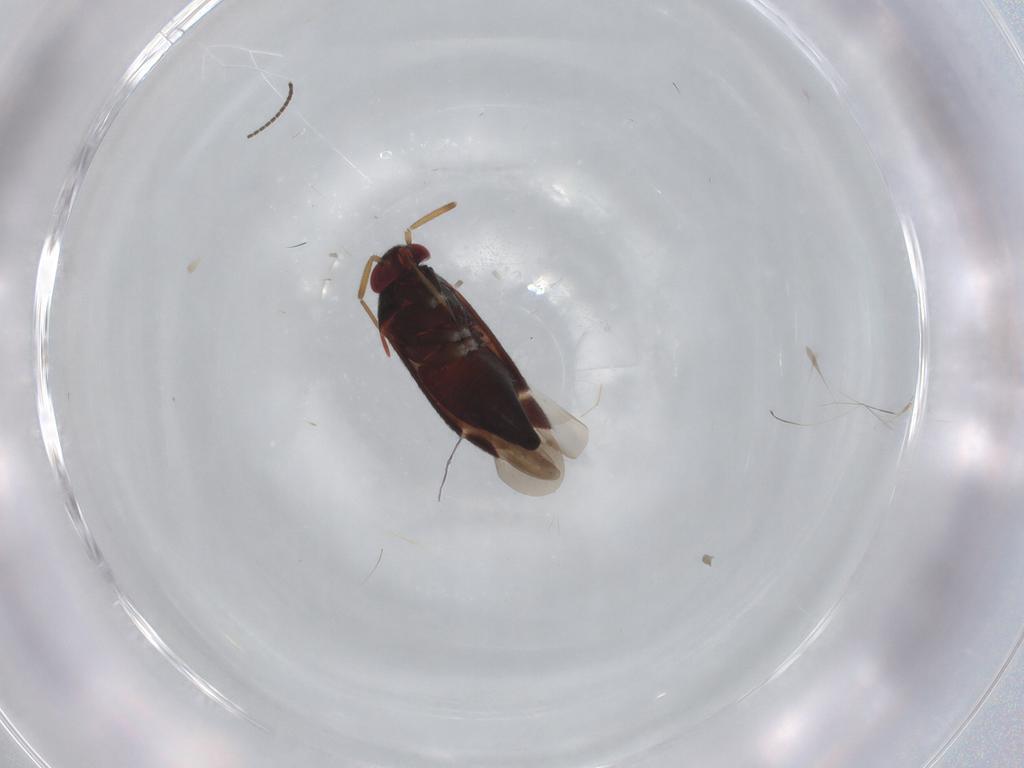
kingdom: Animalia
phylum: Arthropoda
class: Insecta
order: Hemiptera
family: Miridae
